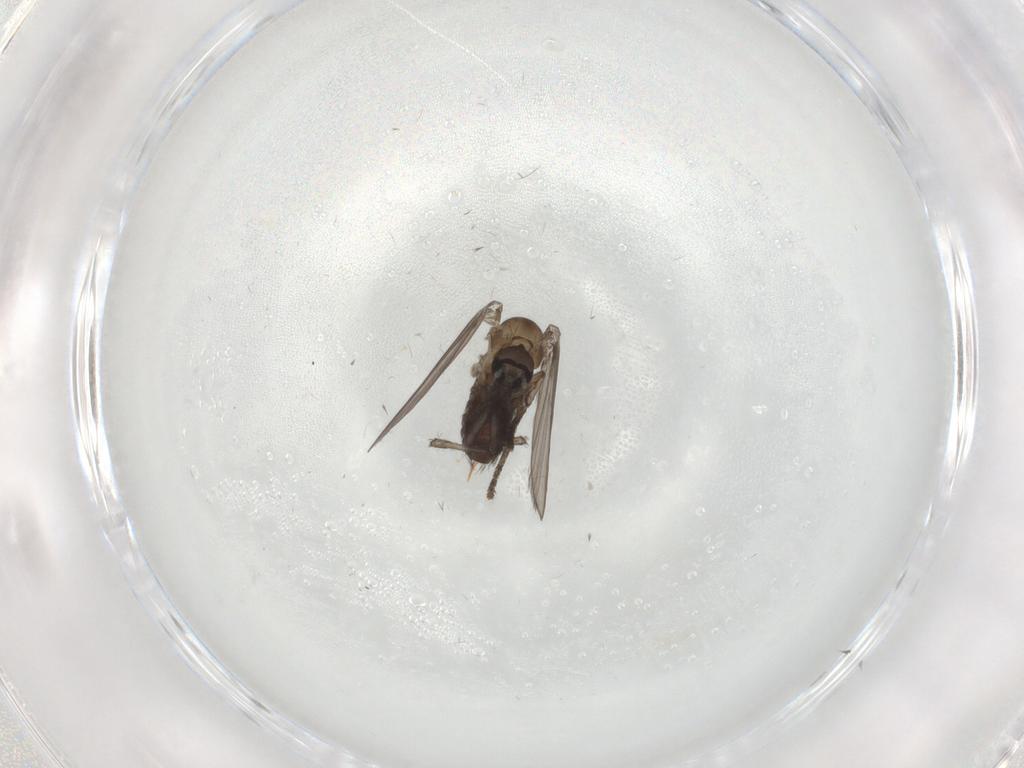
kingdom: Animalia
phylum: Arthropoda
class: Insecta
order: Diptera
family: Psychodidae
